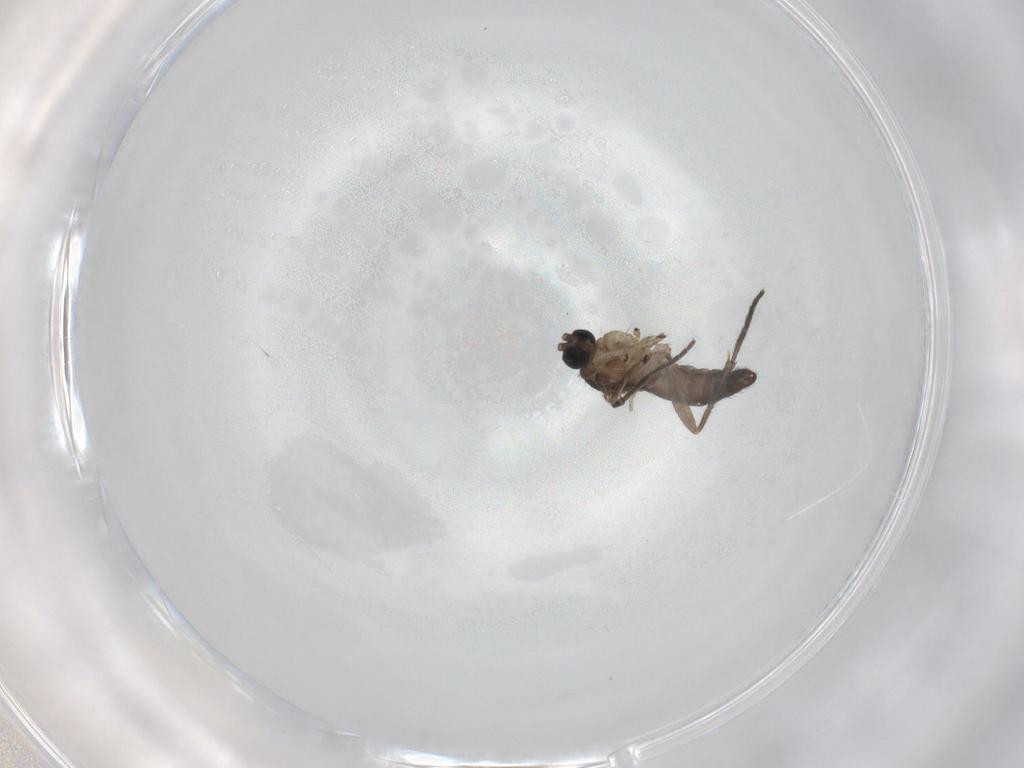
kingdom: Animalia
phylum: Arthropoda
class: Insecta
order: Diptera
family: Sciaridae
